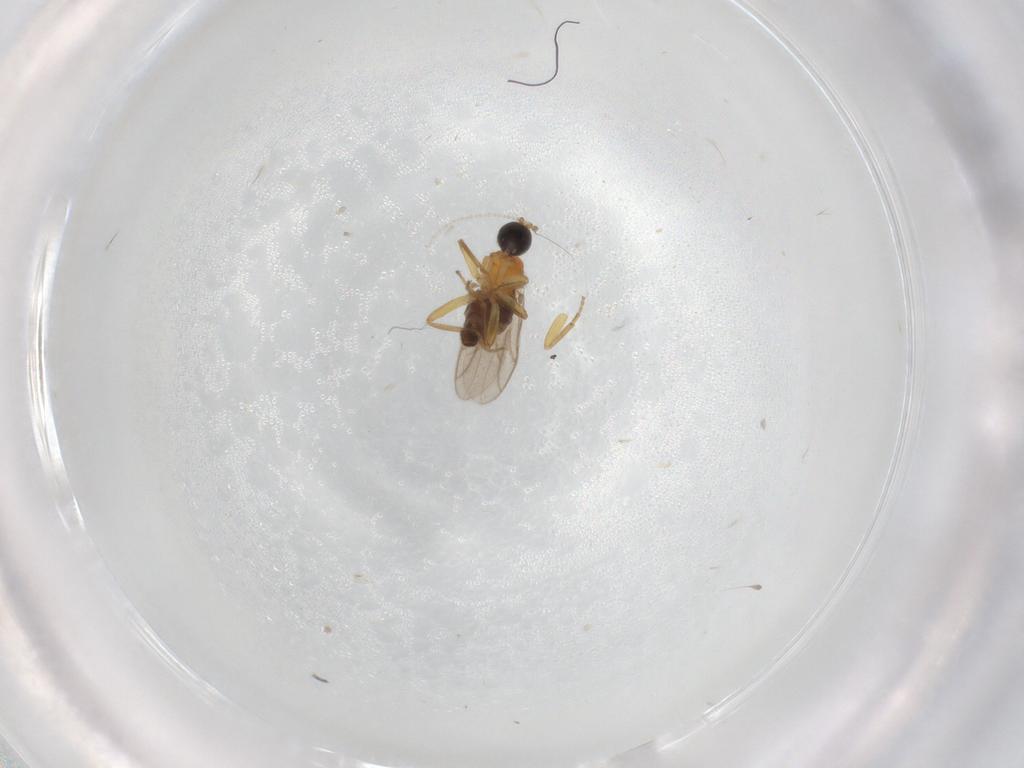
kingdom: Animalia
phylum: Arthropoda
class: Insecta
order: Diptera
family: Hybotidae
